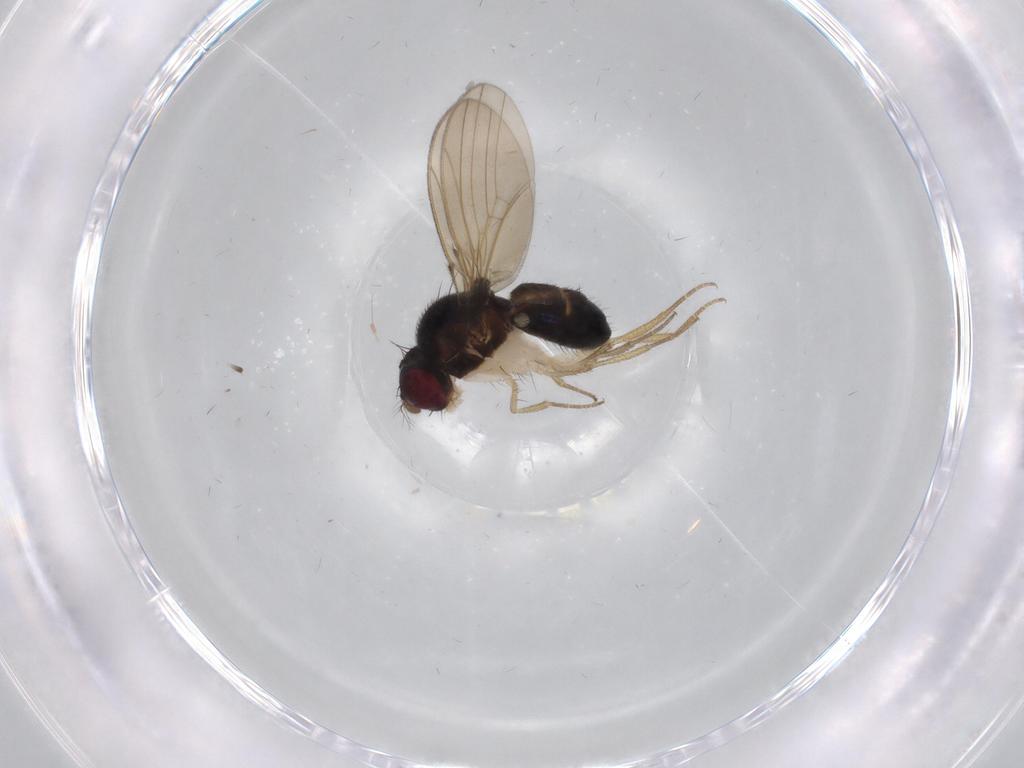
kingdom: Animalia
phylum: Arthropoda
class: Insecta
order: Diptera
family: Drosophilidae
